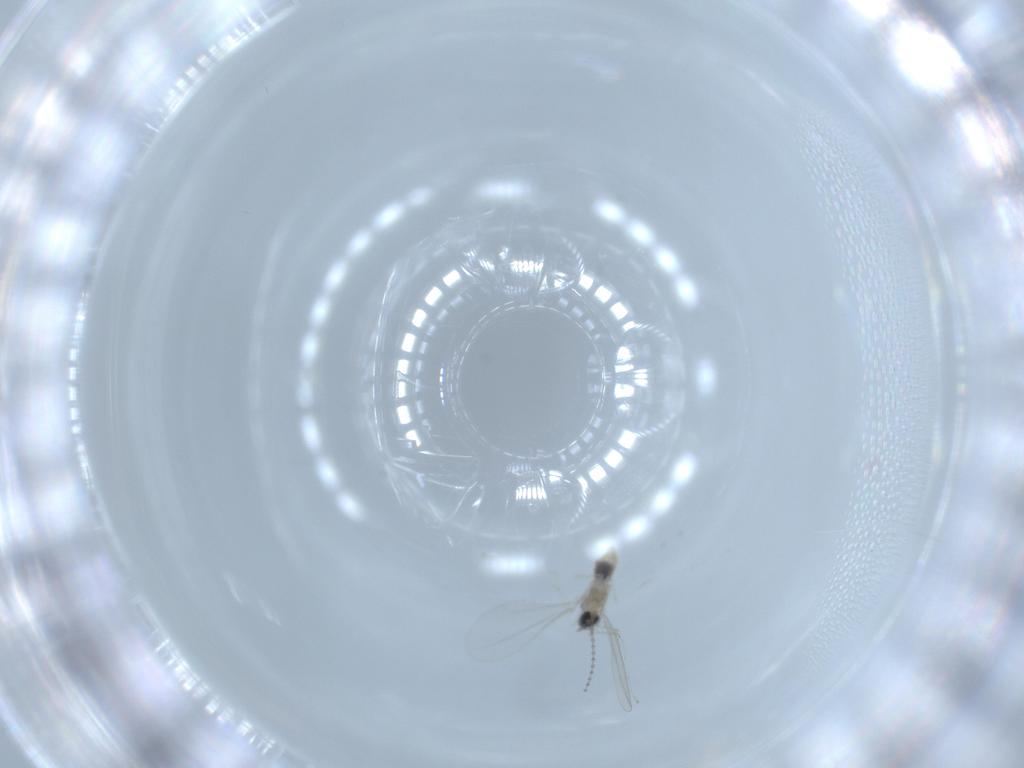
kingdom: Animalia
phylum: Arthropoda
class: Insecta
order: Diptera
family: Cecidomyiidae
